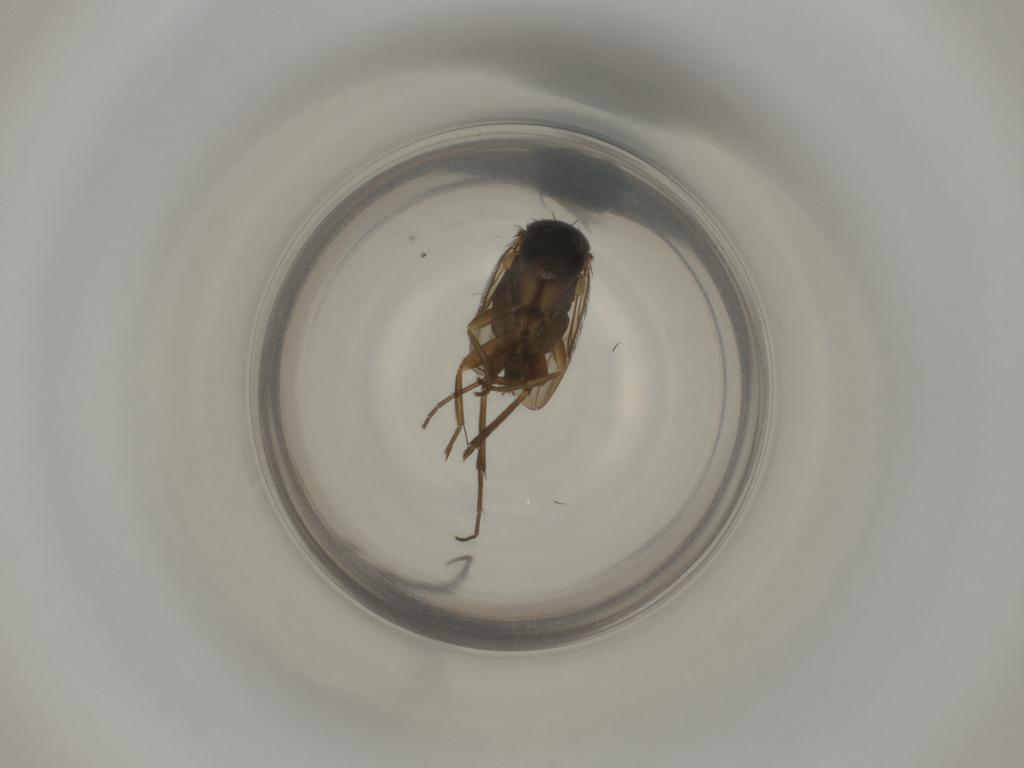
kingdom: Animalia
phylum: Arthropoda
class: Insecta
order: Diptera
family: Phoridae
